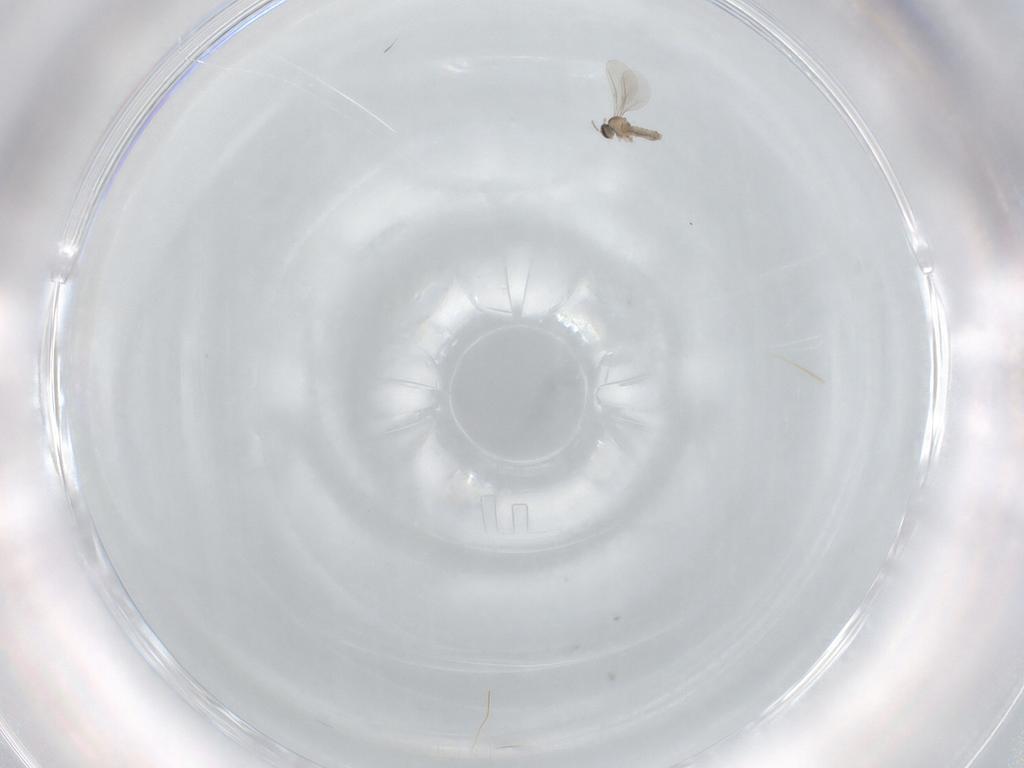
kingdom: Animalia
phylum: Arthropoda
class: Insecta
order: Diptera
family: Cecidomyiidae
